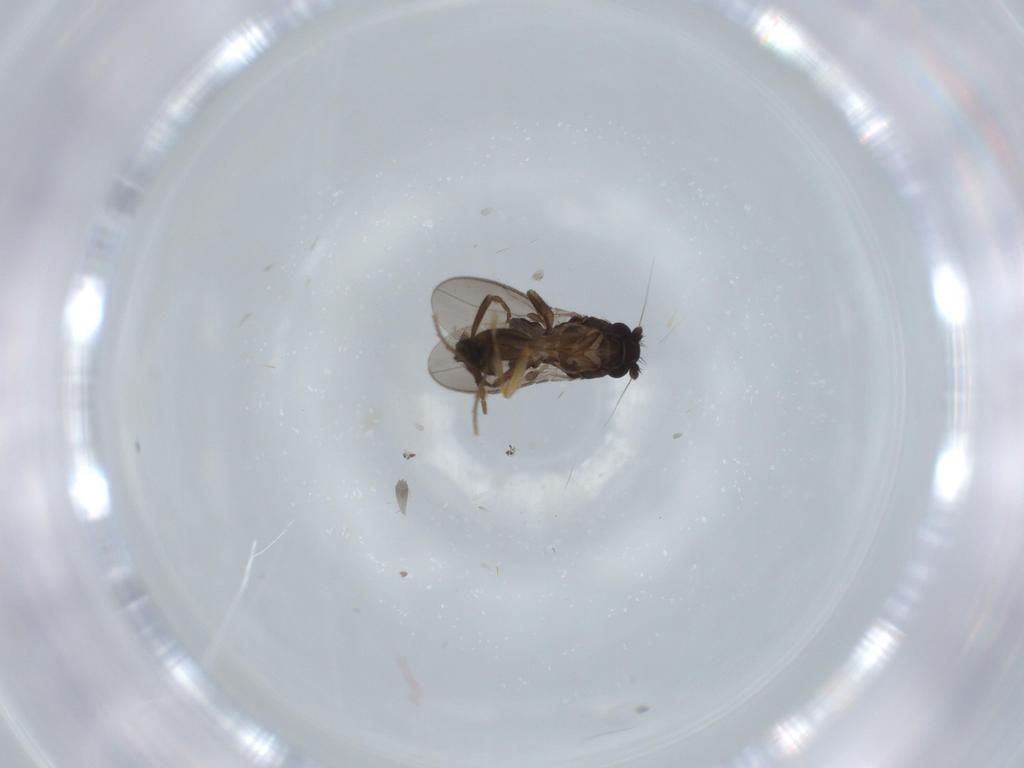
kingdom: Animalia
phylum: Arthropoda
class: Insecta
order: Diptera
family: Sphaeroceridae
